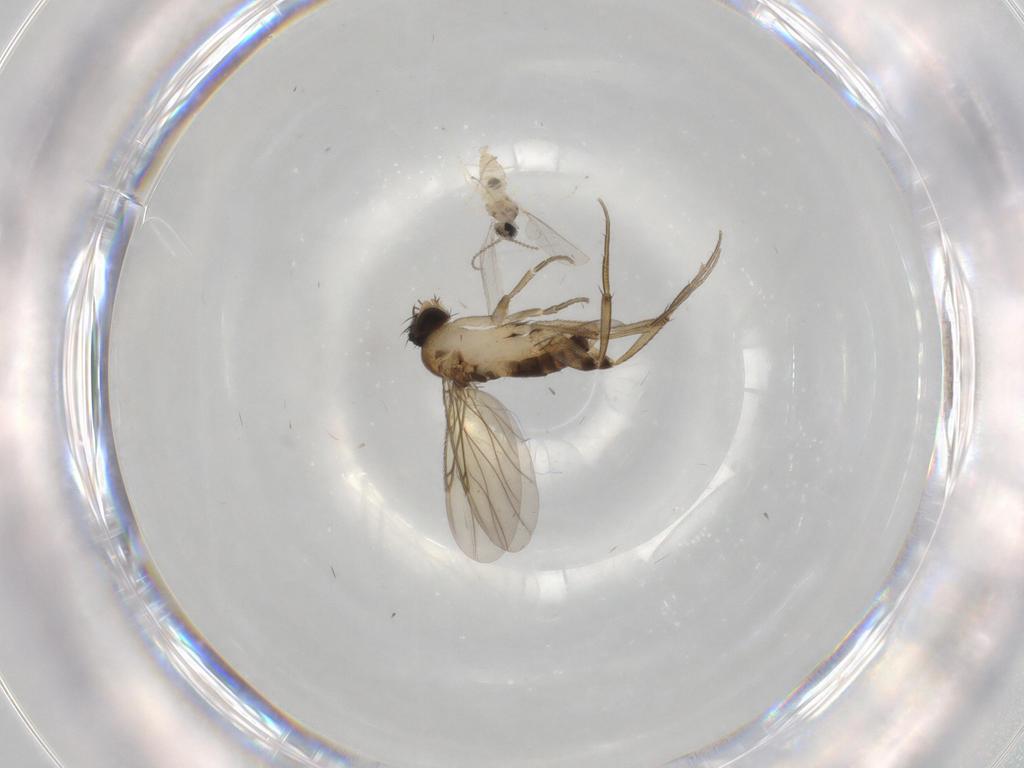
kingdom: Animalia
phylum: Arthropoda
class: Insecta
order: Diptera
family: Phoridae
